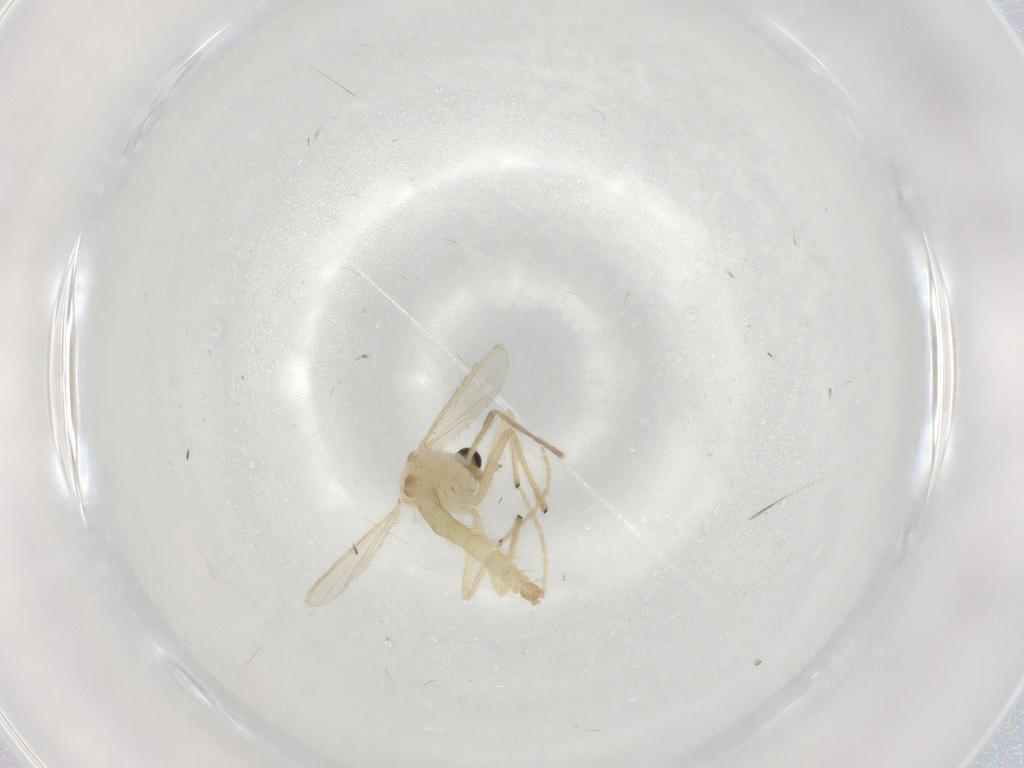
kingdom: Animalia
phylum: Arthropoda
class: Insecta
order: Diptera
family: Chironomidae
